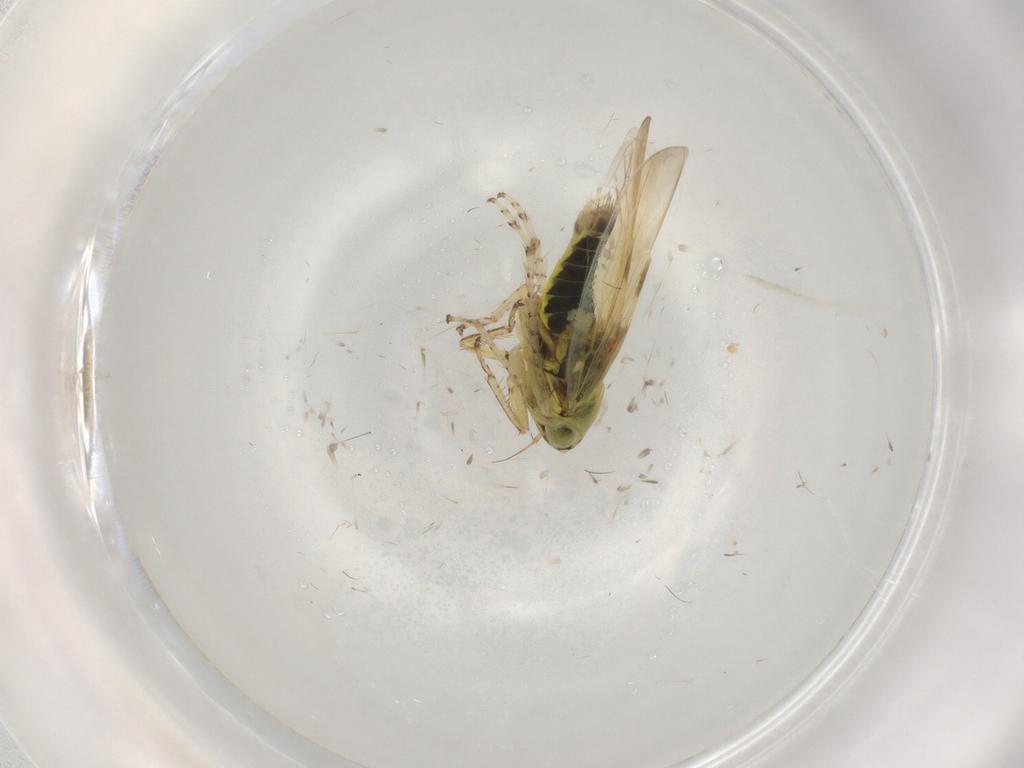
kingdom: Animalia
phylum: Arthropoda
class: Insecta
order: Hemiptera
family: Cicadellidae
